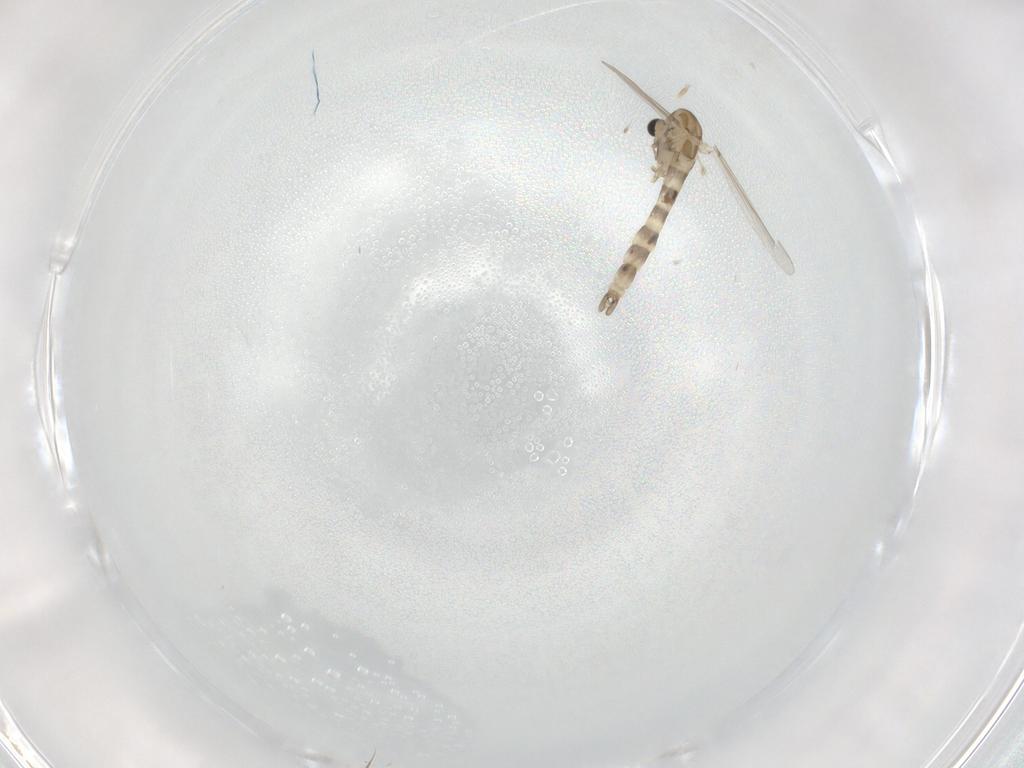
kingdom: Animalia
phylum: Arthropoda
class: Insecta
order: Diptera
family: Chironomidae
